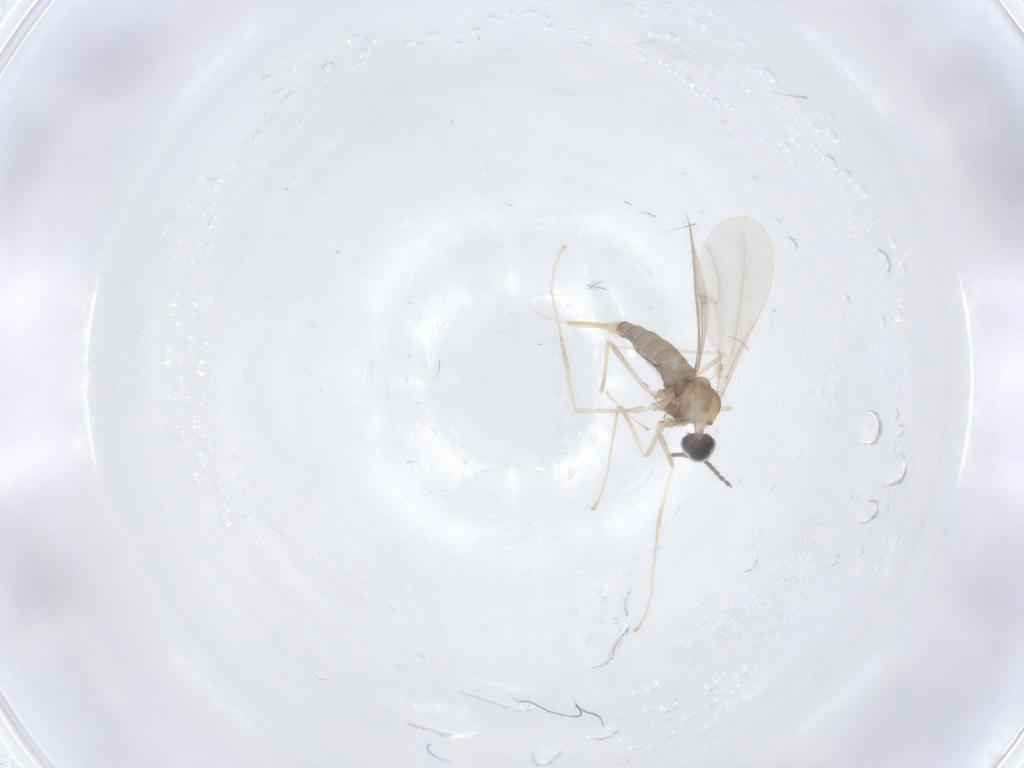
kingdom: Animalia
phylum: Arthropoda
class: Insecta
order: Diptera
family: Cecidomyiidae
